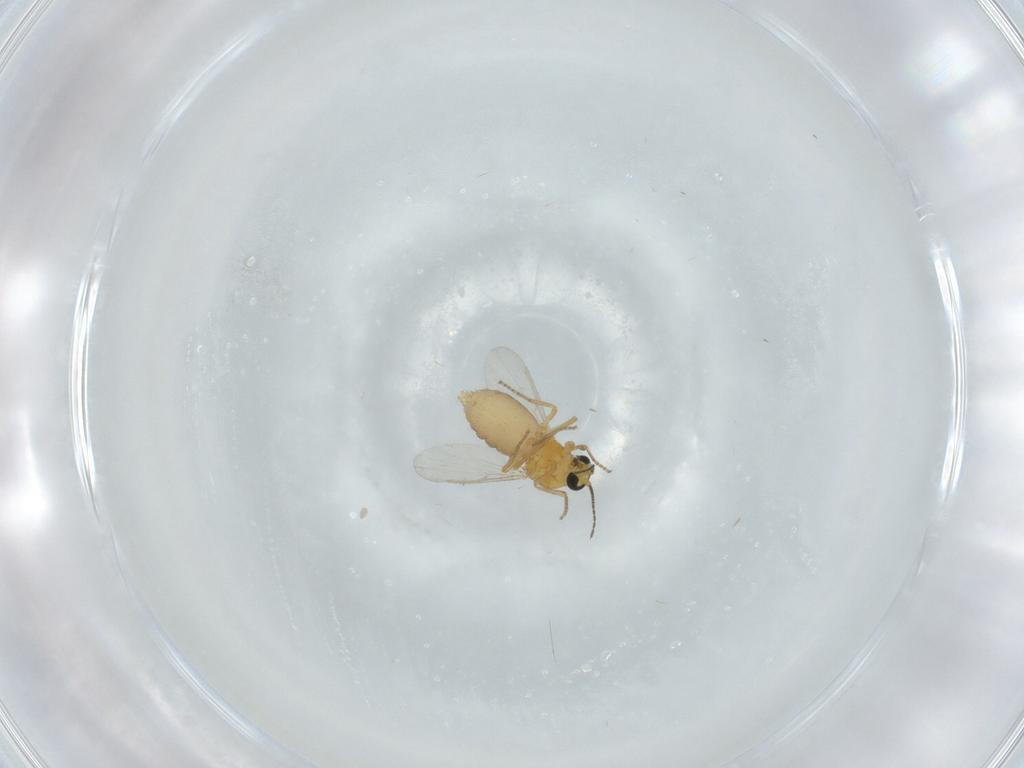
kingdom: Animalia
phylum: Arthropoda
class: Insecta
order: Diptera
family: Ceratopogonidae
